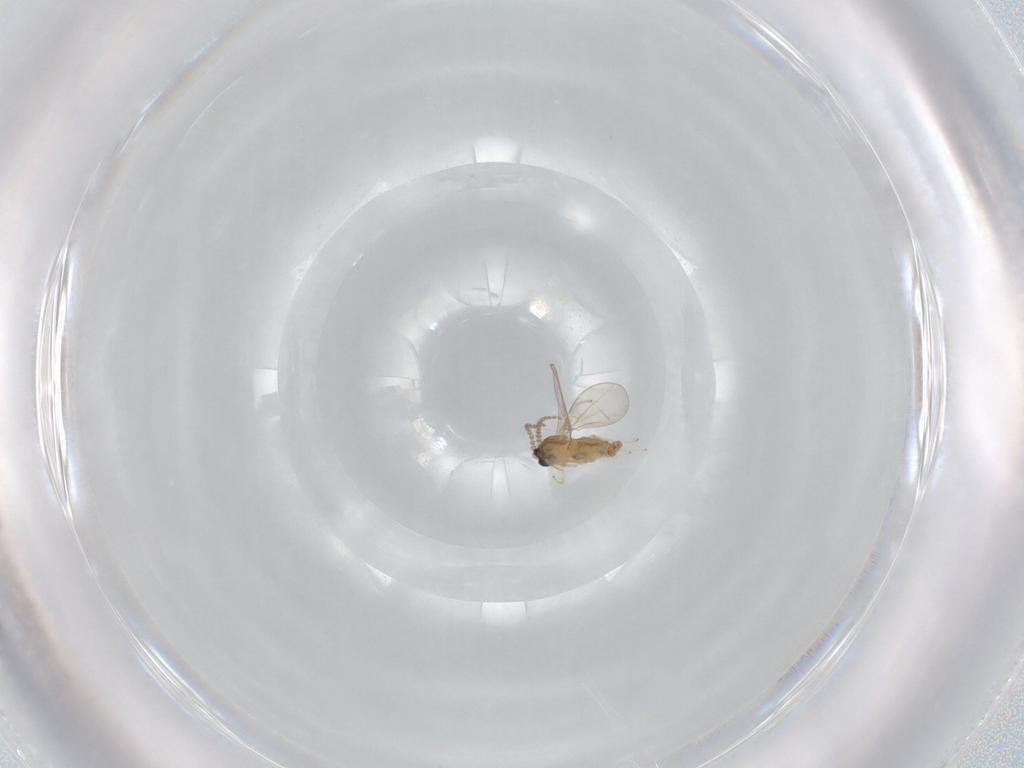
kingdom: Animalia
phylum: Arthropoda
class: Insecta
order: Diptera
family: Cecidomyiidae
